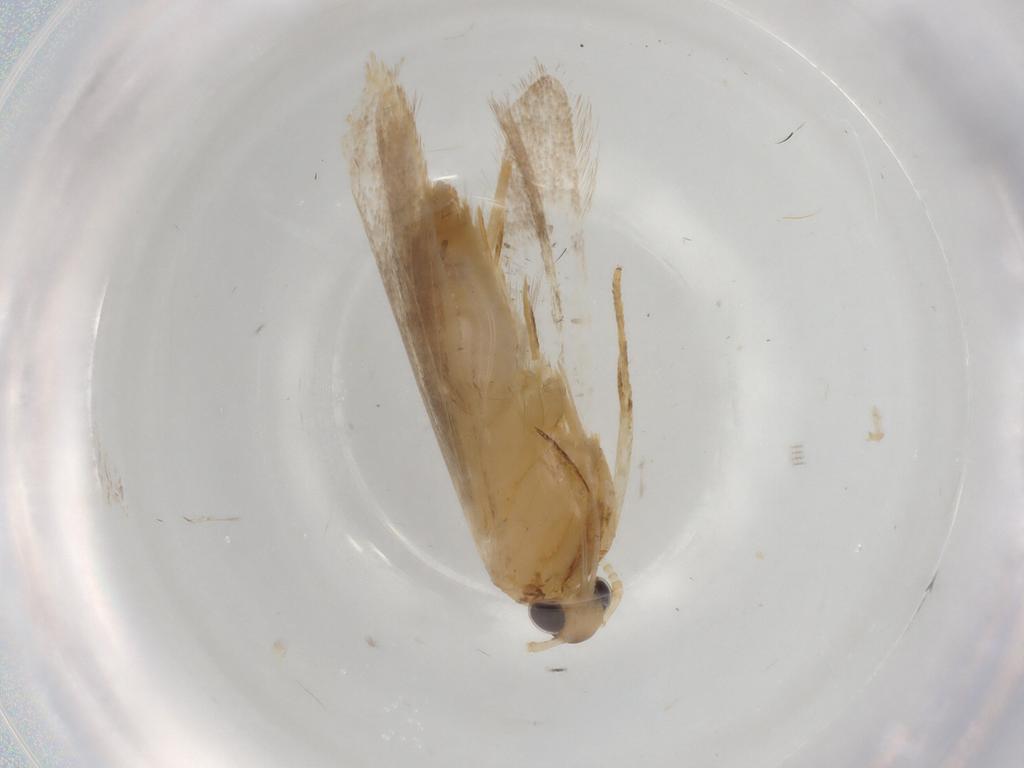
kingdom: Animalia
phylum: Arthropoda
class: Insecta
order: Lepidoptera
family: Lecithoceridae
